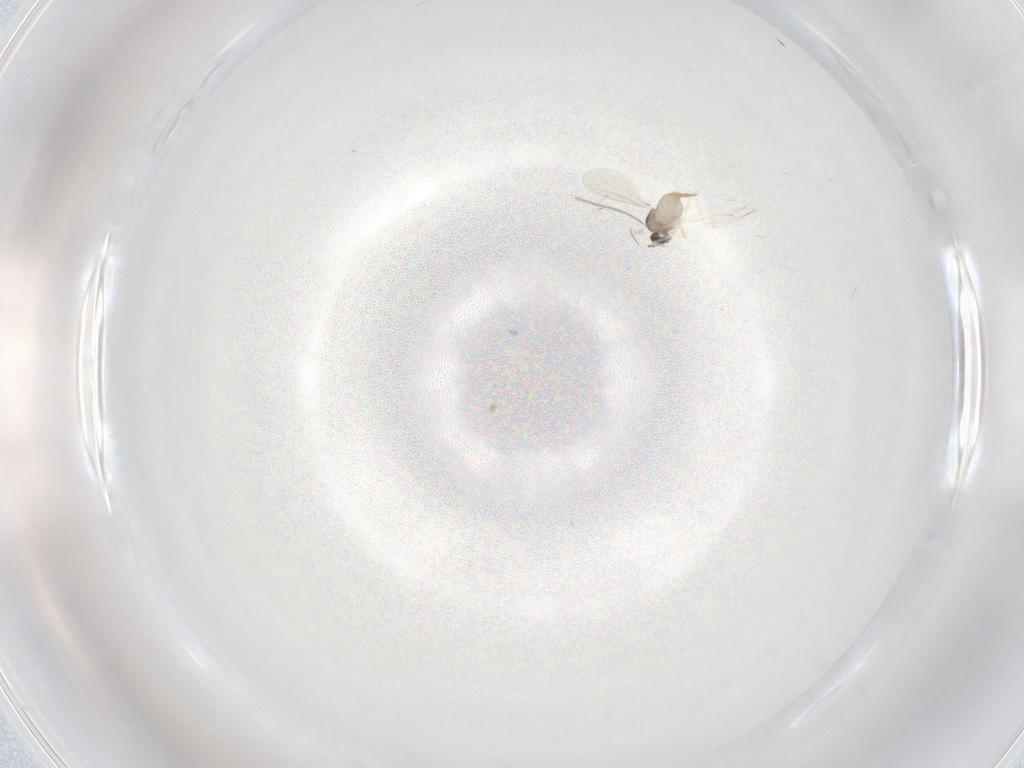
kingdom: Animalia
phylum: Arthropoda
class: Insecta
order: Diptera
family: Cecidomyiidae
